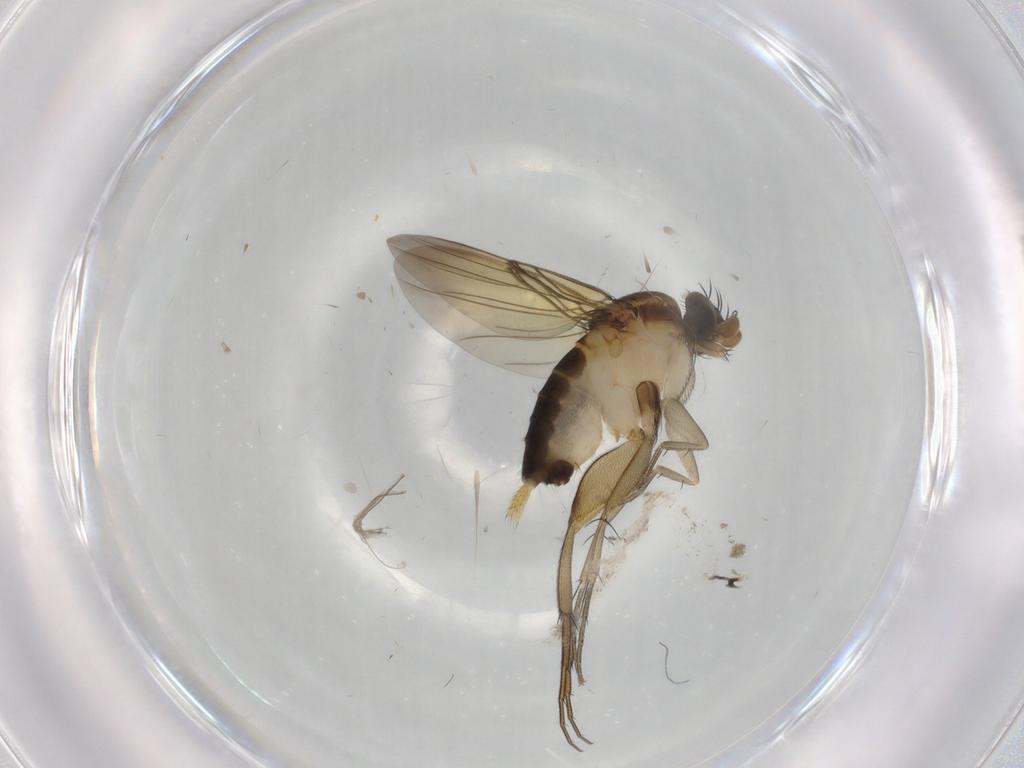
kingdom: Animalia
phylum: Arthropoda
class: Insecta
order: Diptera
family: Phoridae
